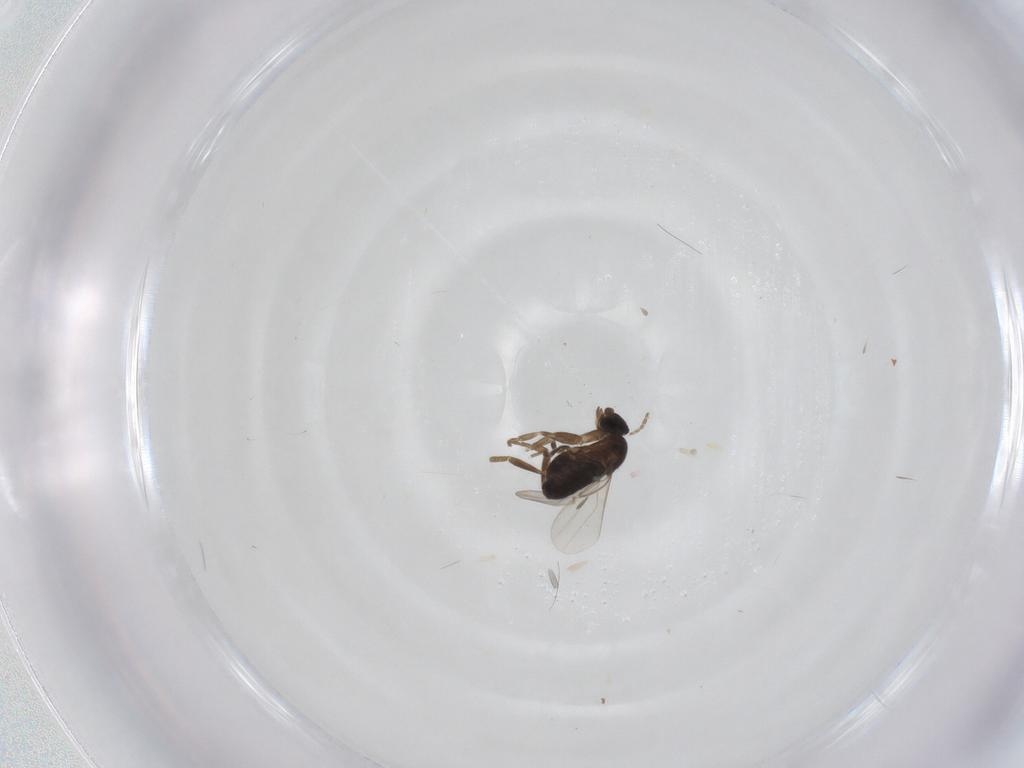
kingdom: Animalia
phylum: Arthropoda
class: Insecta
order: Diptera
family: Phoridae
